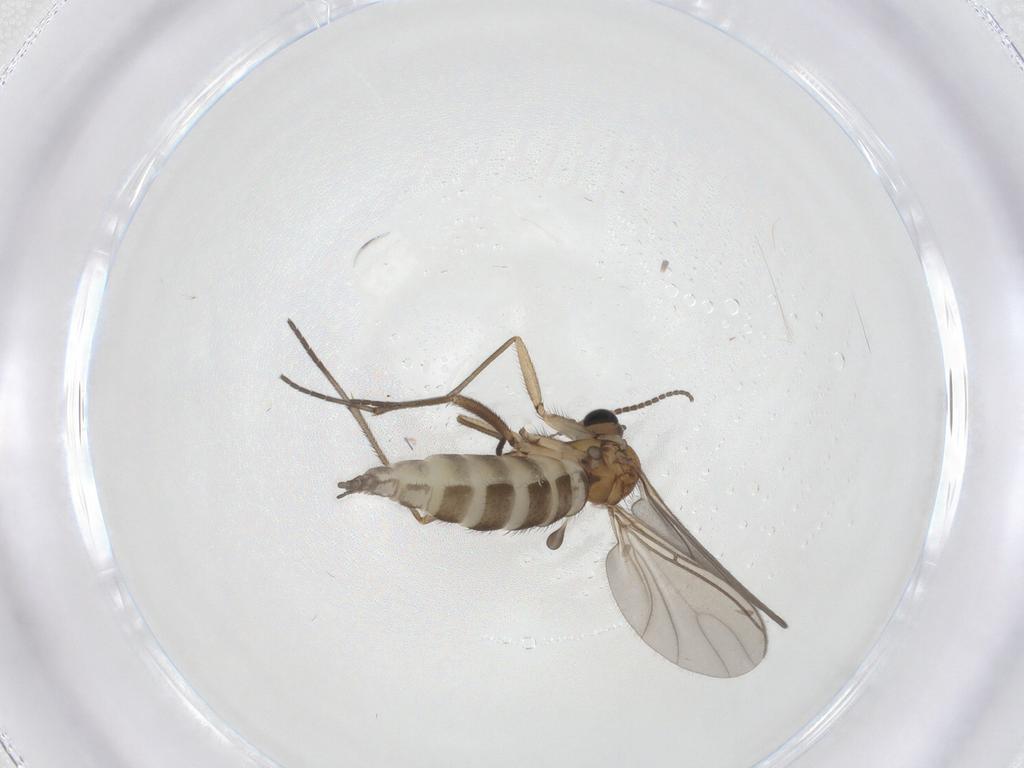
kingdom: Animalia
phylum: Arthropoda
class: Insecta
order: Diptera
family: Sciaridae
